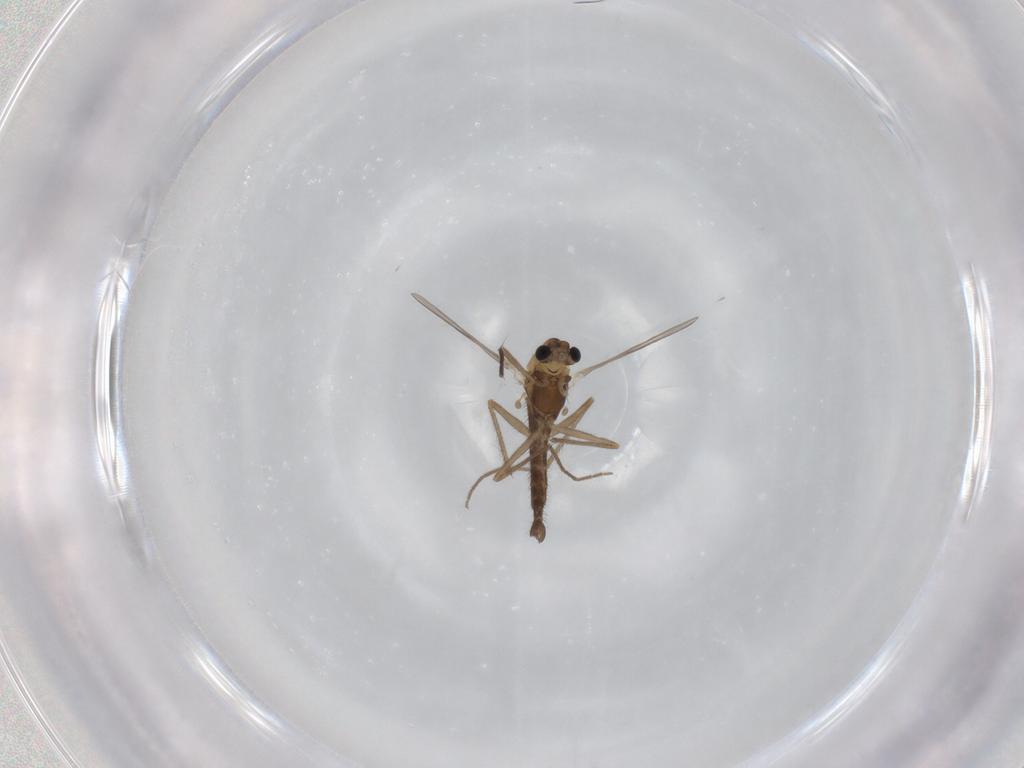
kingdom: Animalia
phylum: Arthropoda
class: Insecta
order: Diptera
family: Chironomidae
